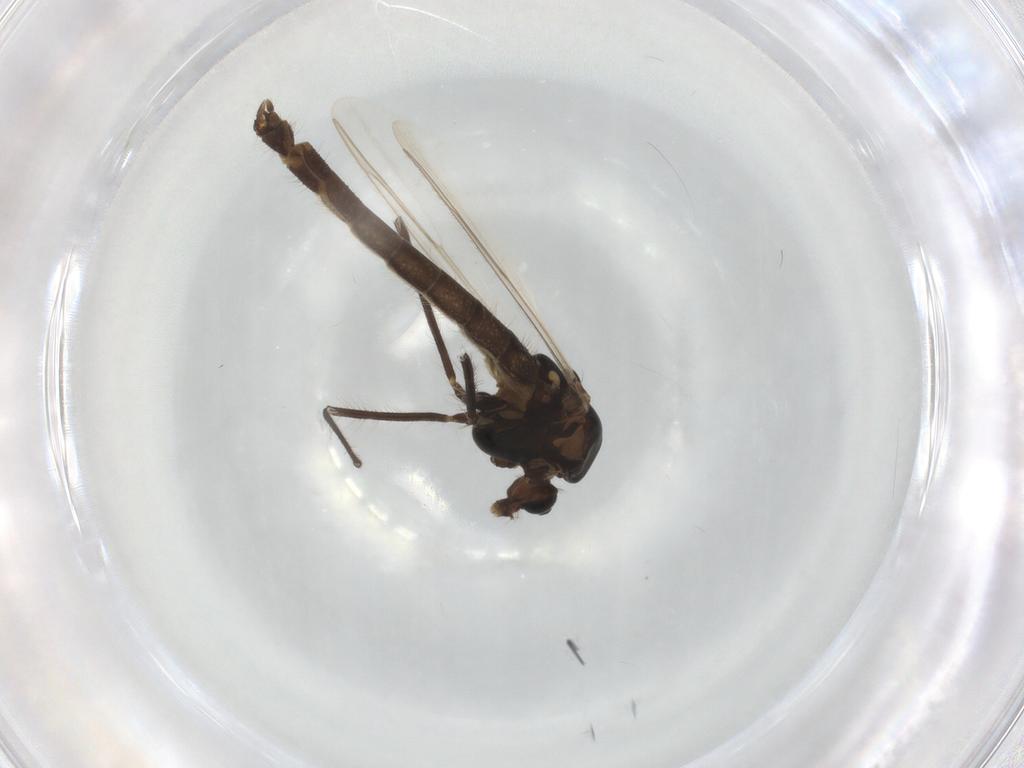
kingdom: Animalia
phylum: Arthropoda
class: Insecta
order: Diptera
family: Chironomidae
